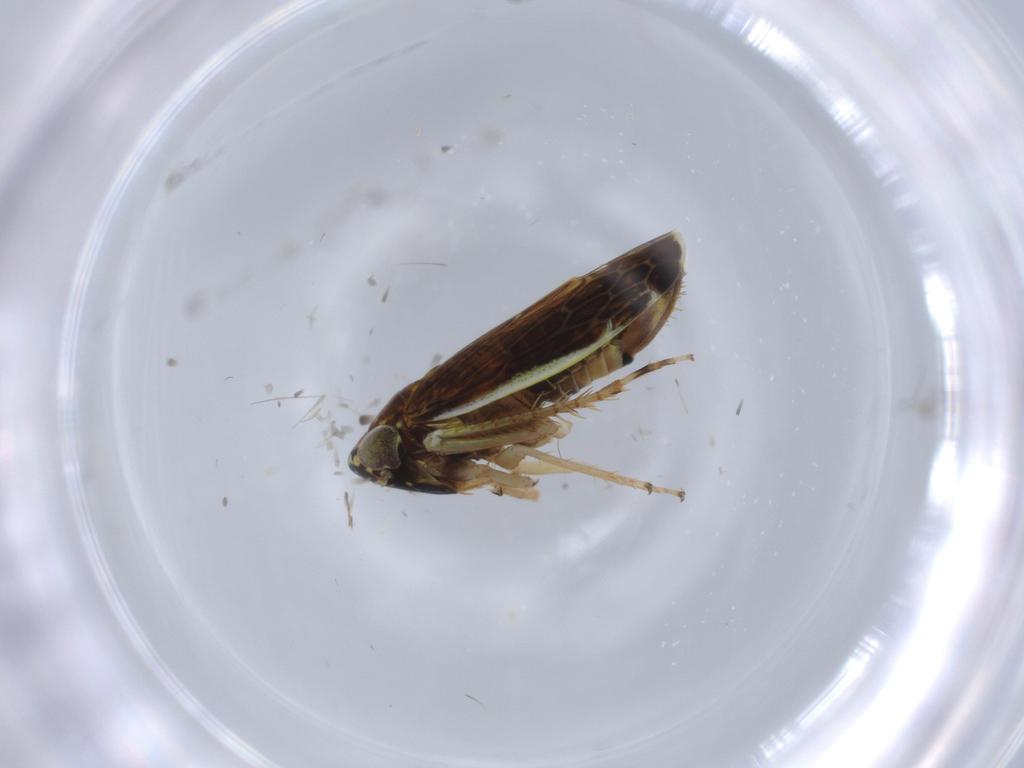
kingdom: Animalia
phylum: Arthropoda
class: Insecta
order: Hemiptera
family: Cicadellidae
